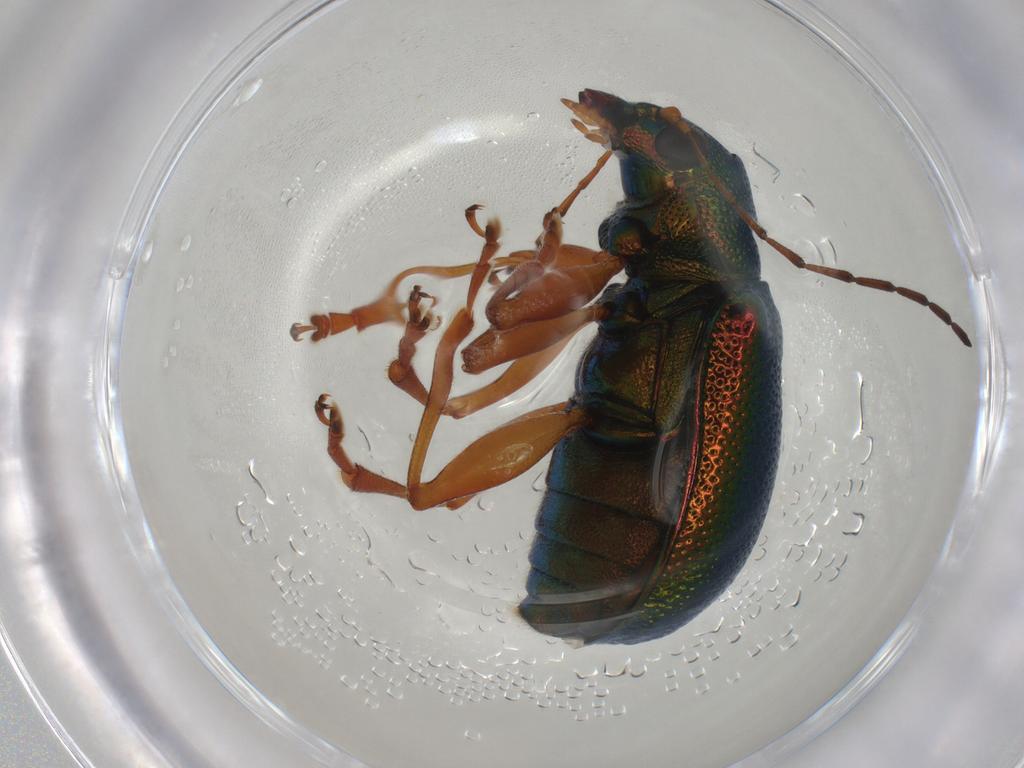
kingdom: Animalia
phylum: Arthropoda
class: Insecta
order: Coleoptera
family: Chrysomelidae
